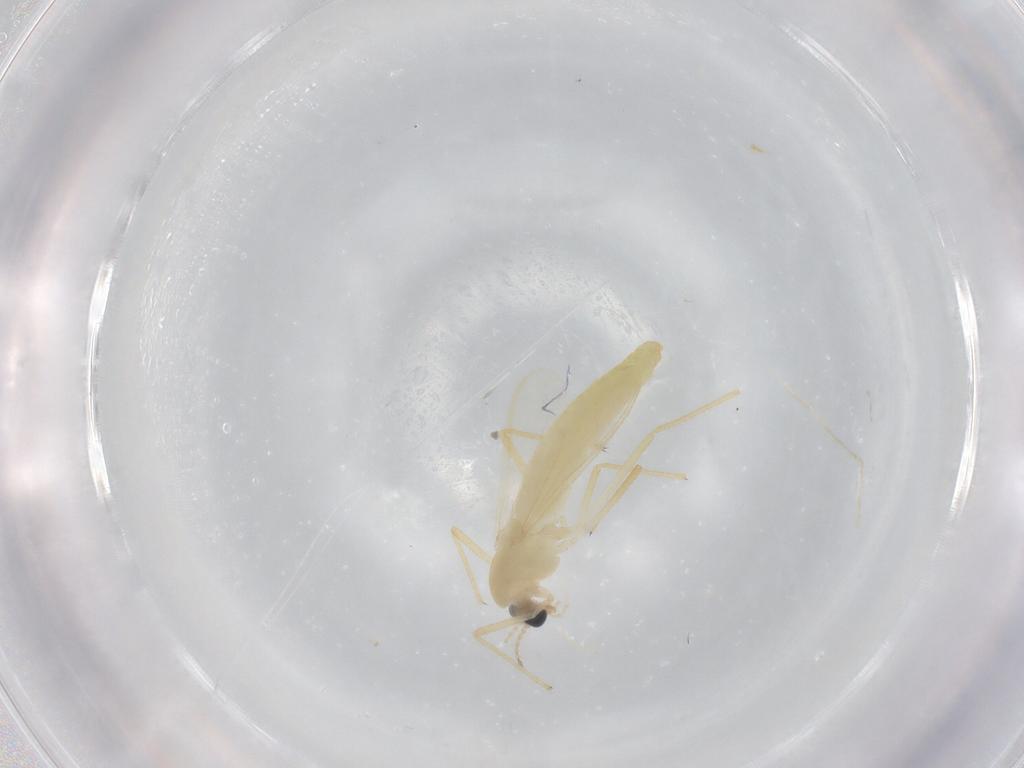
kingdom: Animalia
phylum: Arthropoda
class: Insecta
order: Diptera
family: Chironomidae
